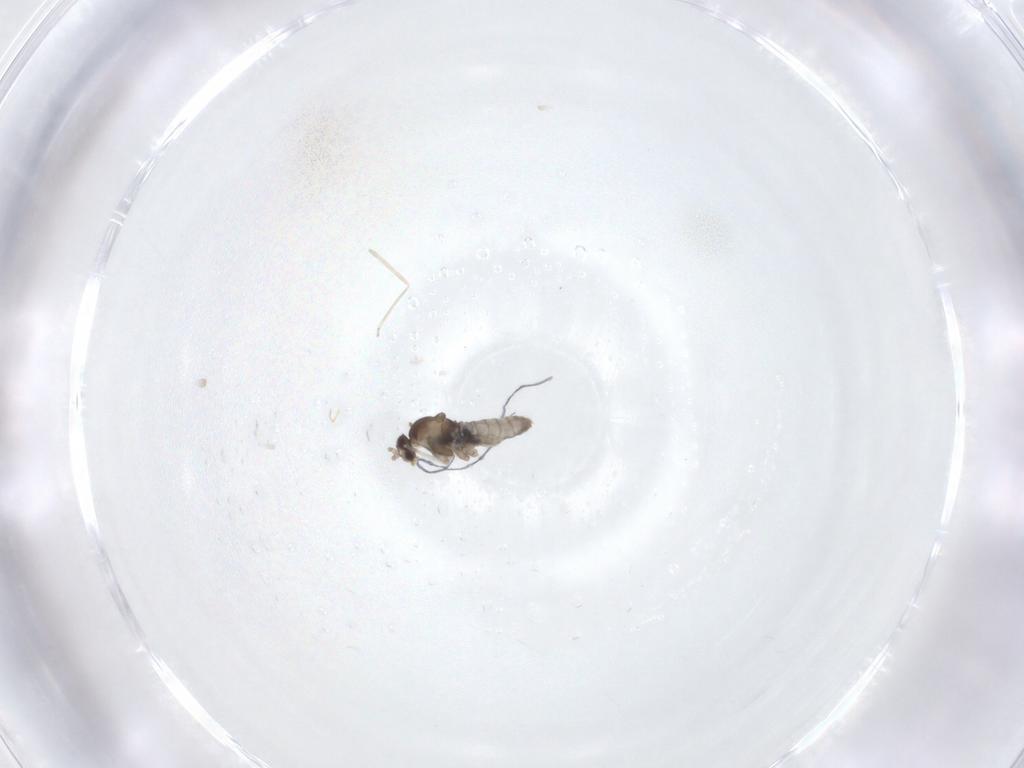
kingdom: Animalia
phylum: Arthropoda
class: Insecta
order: Diptera
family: Cecidomyiidae
